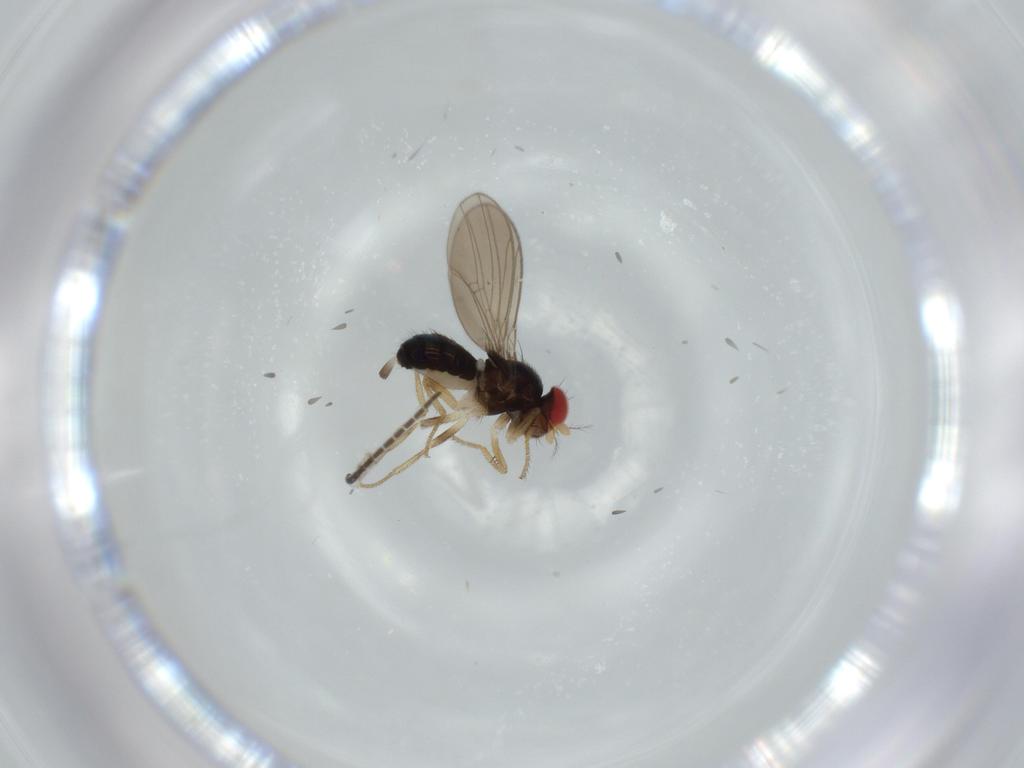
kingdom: Animalia
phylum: Arthropoda
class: Insecta
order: Diptera
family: Drosophilidae
